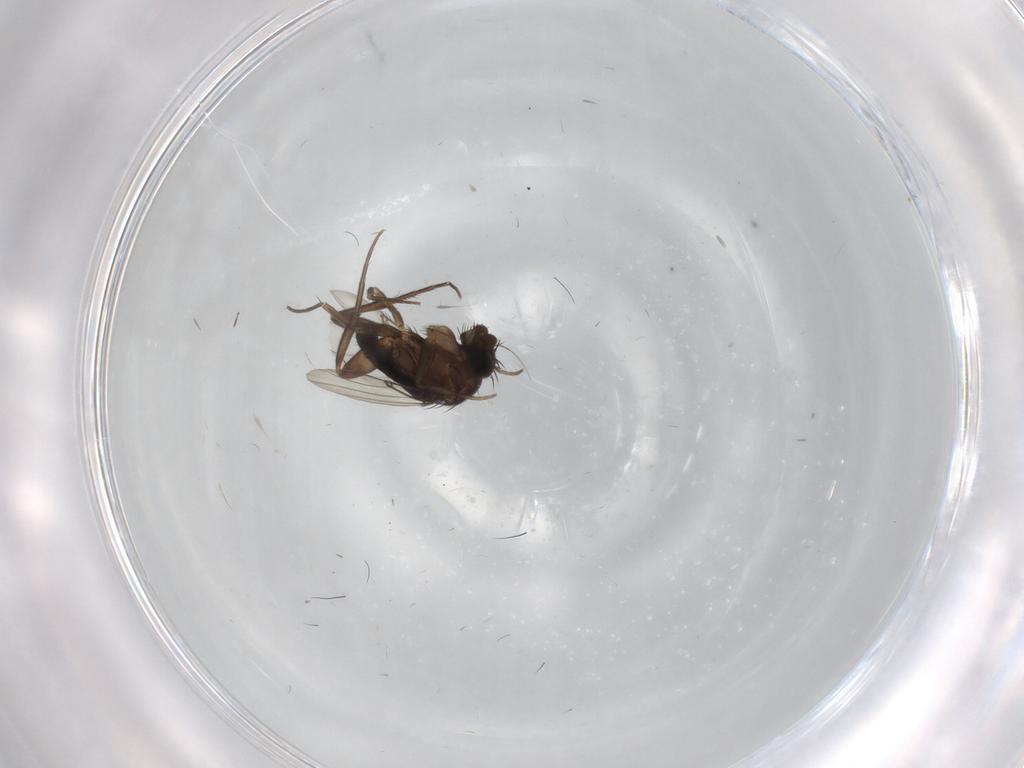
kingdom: Animalia
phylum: Arthropoda
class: Insecta
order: Diptera
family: Phoridae
